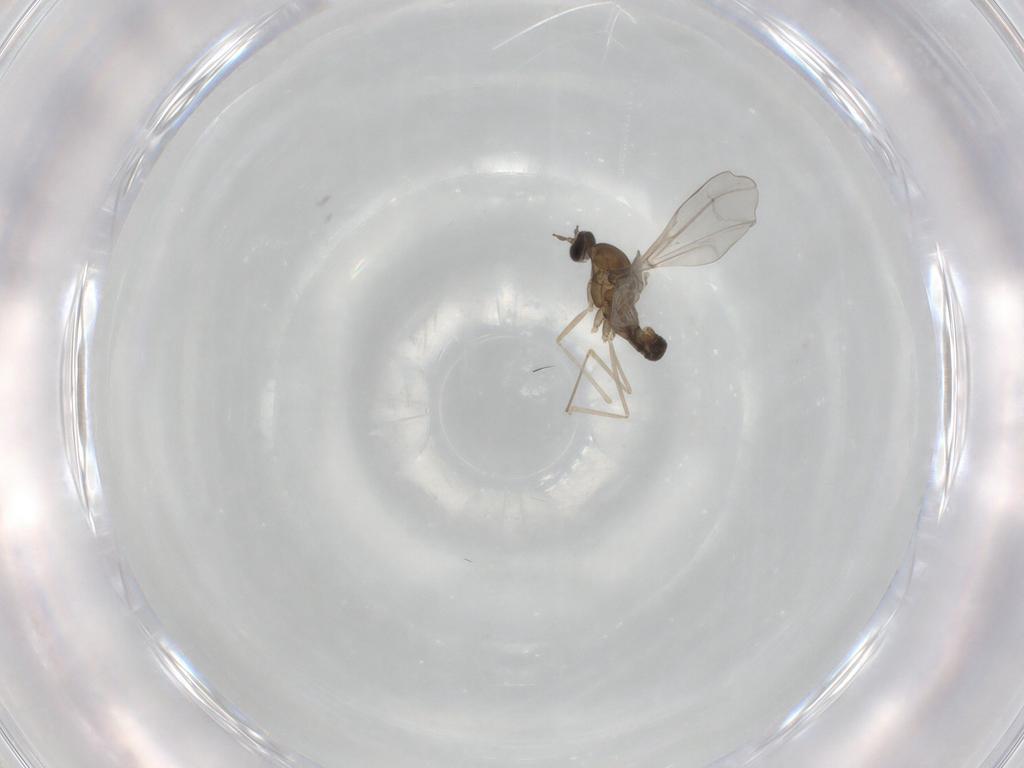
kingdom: Animalia
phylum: Arthropoda
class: Insecta
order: Diptera
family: Cecidomyiidae
